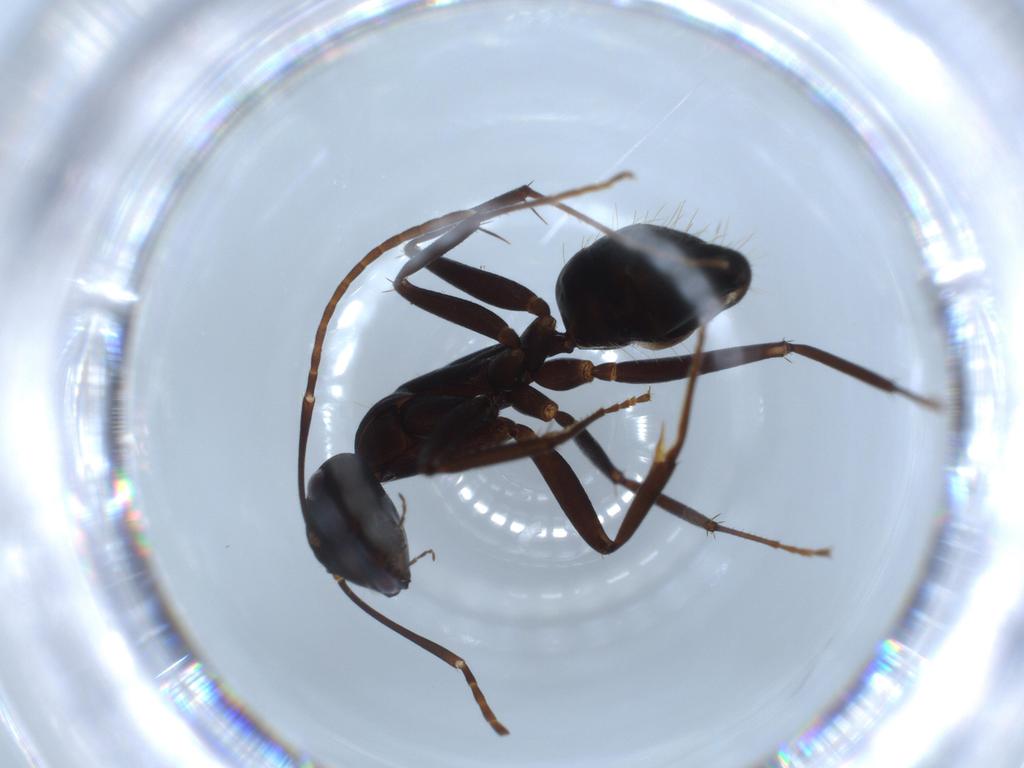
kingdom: Animalia
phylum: Arthropoda
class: Insecta
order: Hymenoptera
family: Formicidae
